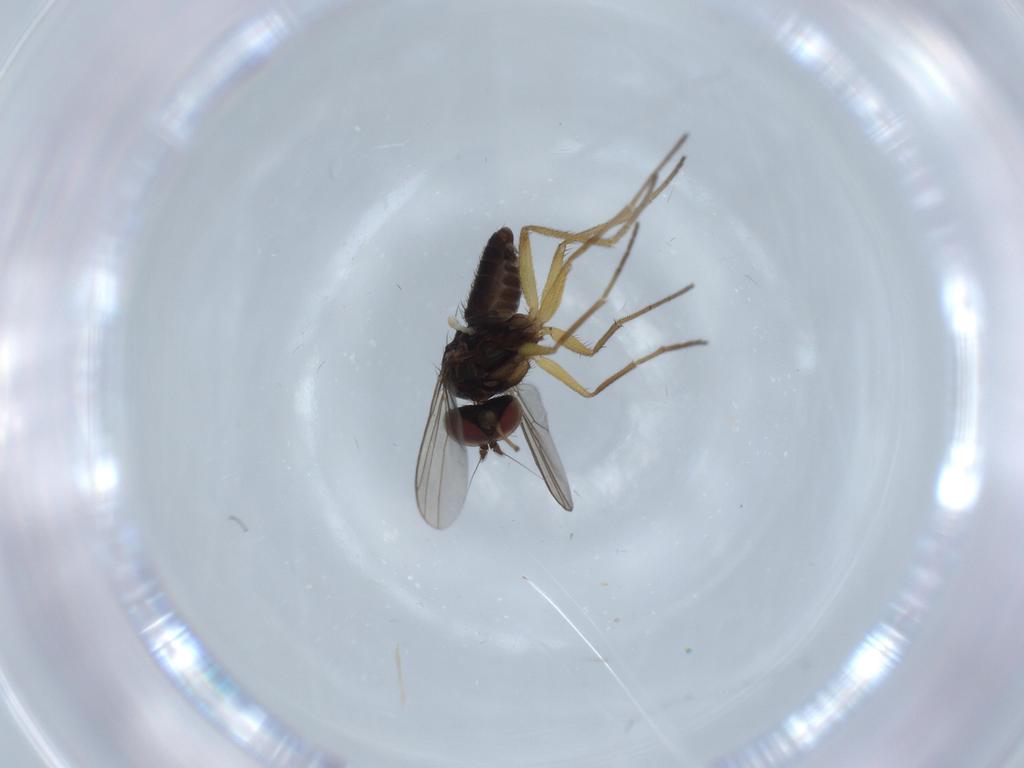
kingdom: Animalia
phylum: Arthropoda
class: Insecta
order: Diptera
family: Dolichopodidae
